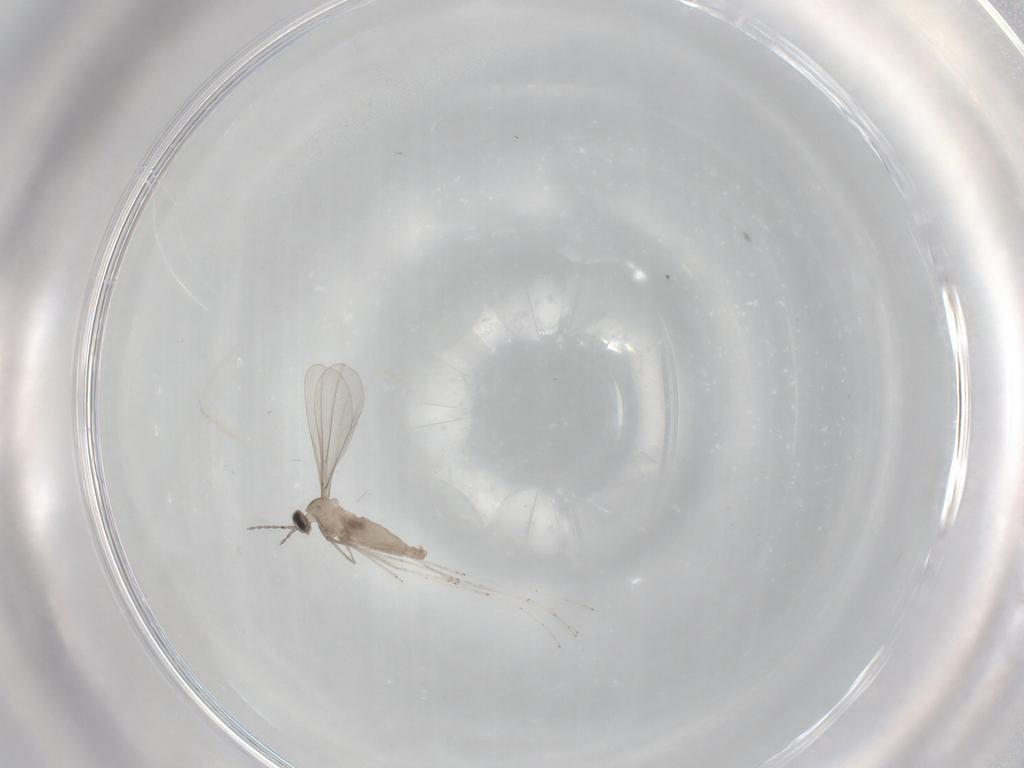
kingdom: Animalia
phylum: Arthropoda
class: Insecta
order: Diptera
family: Cecidomyiidae
